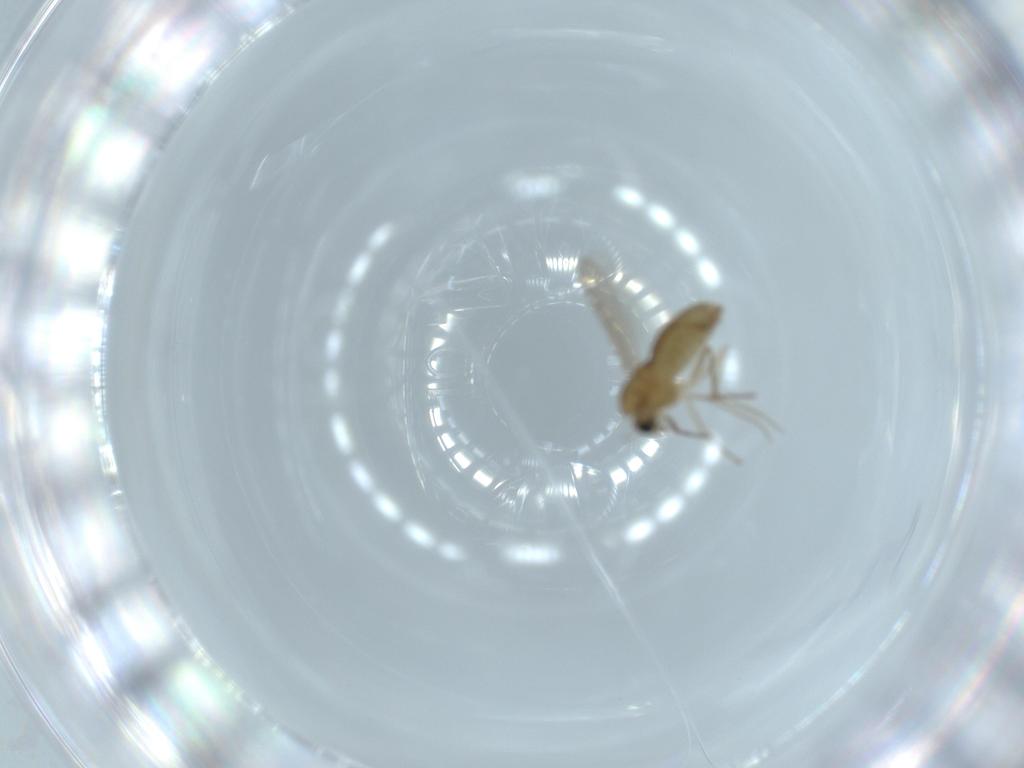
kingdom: Animalia
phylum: Arthropoda
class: Insecta
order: Diptera
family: Chironomidae
